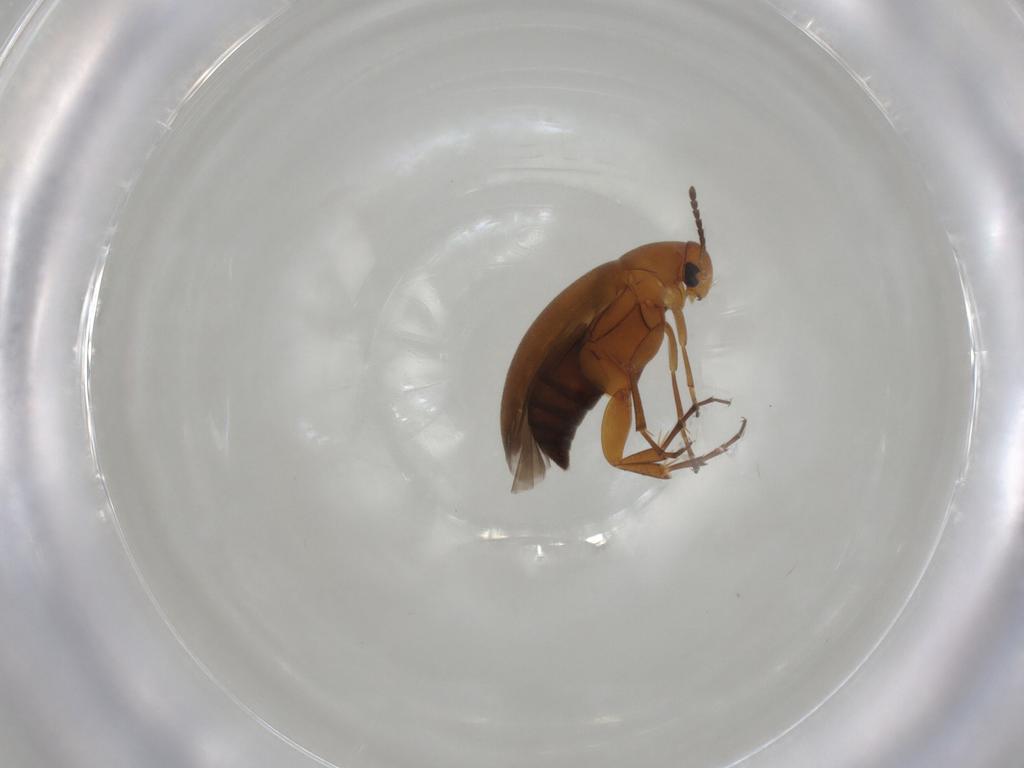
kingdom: Animalia
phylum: Arthropoda
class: Insecta
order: Coleoptera
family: Scraptiidae
